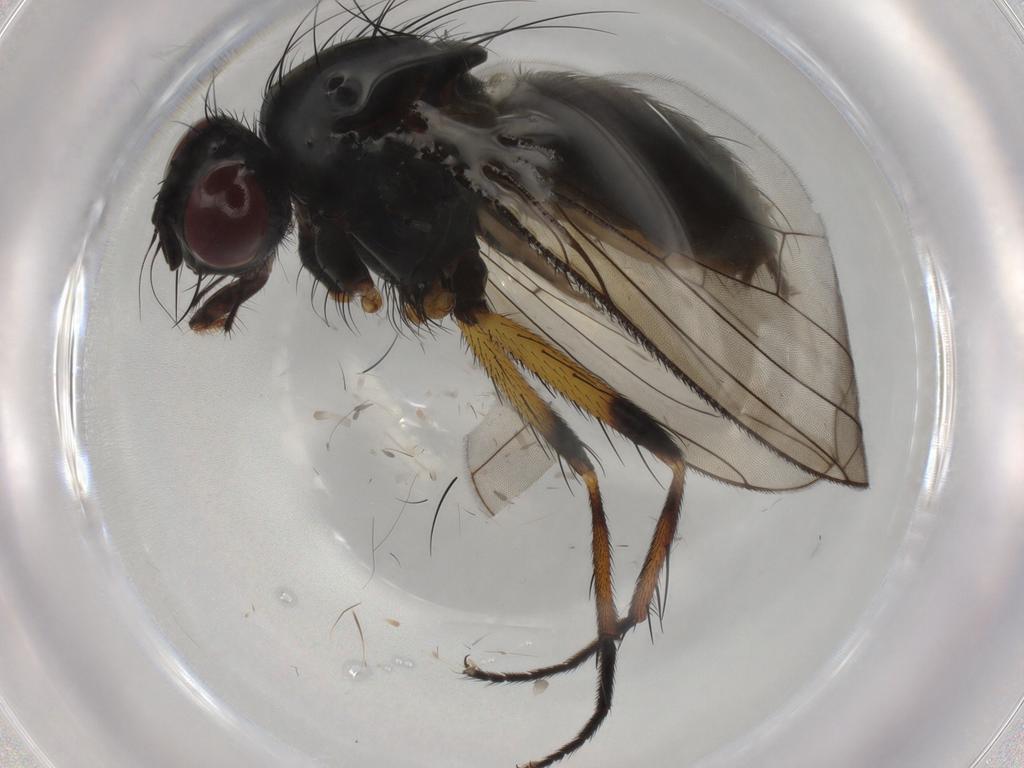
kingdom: Animalia
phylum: Arthropoda
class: Insecta
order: Diptera
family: Muscidae
